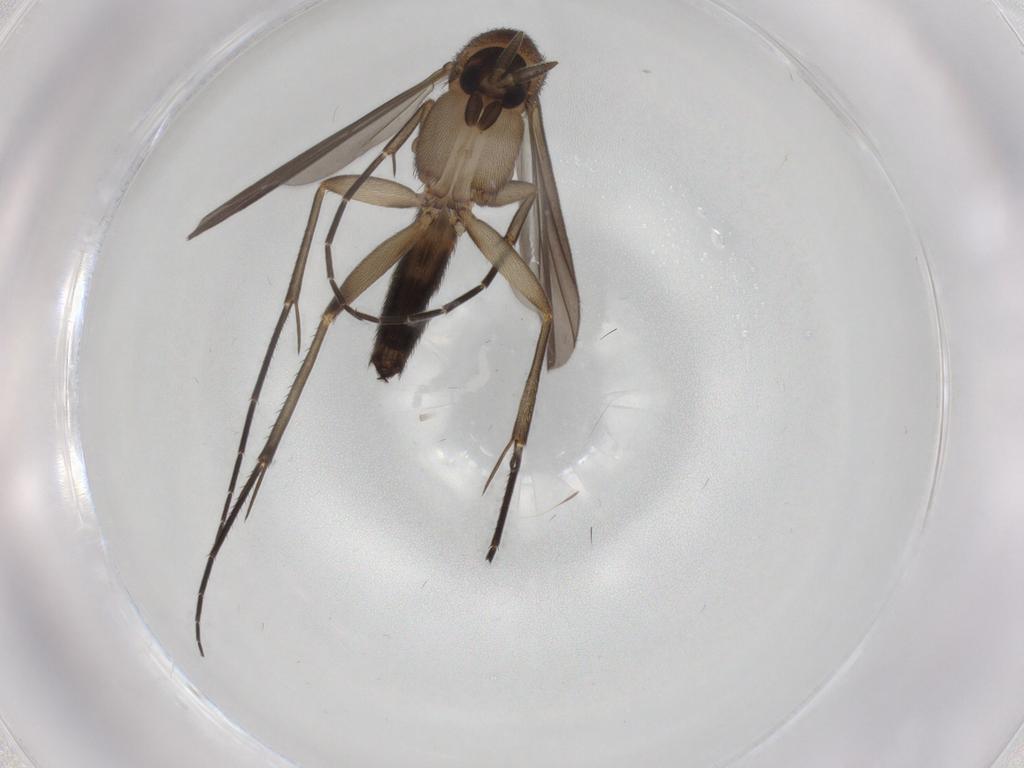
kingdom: Animalia
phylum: Arthropoda
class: Insecta
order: Diptera
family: Mycetophilidae
